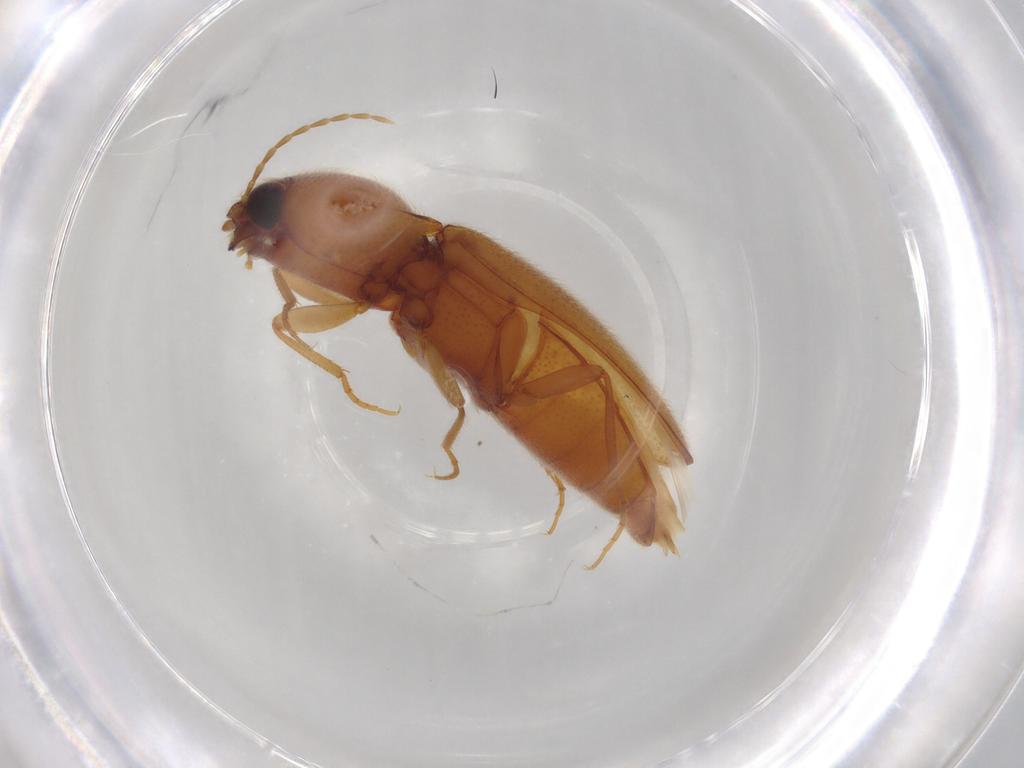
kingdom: Animalia
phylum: Arthropoda
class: Insecta
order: Coleoptera
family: Elateridae
